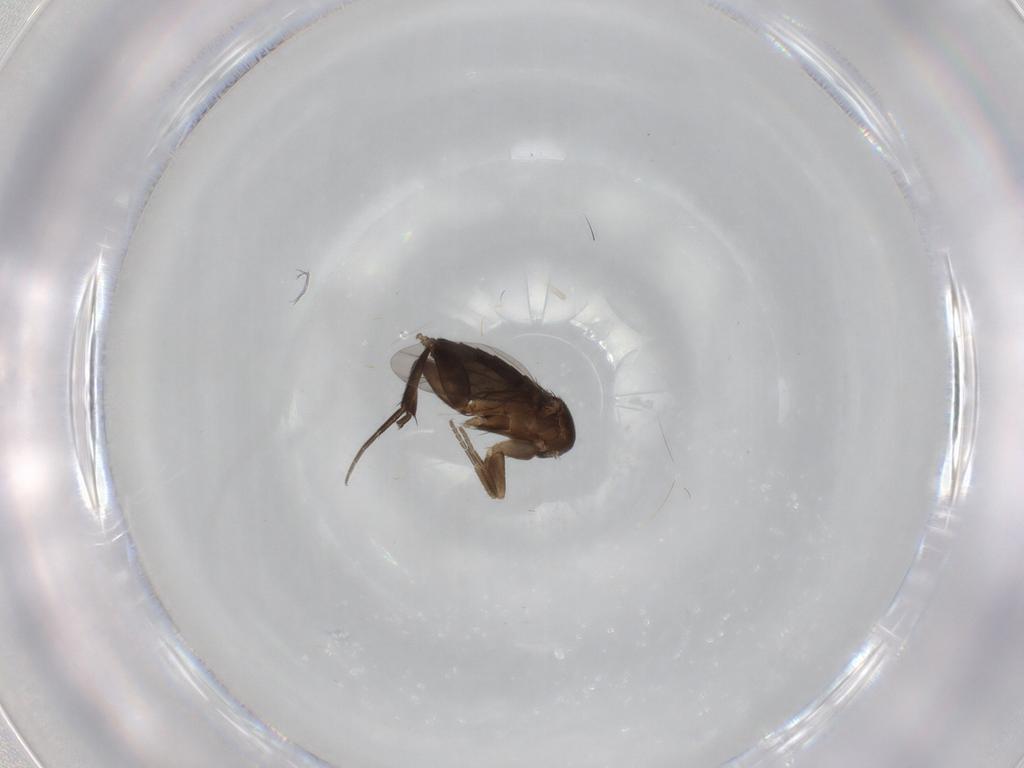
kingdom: Animalia
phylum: Arthropoda
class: Insecta
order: Diptera
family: Phoridae
